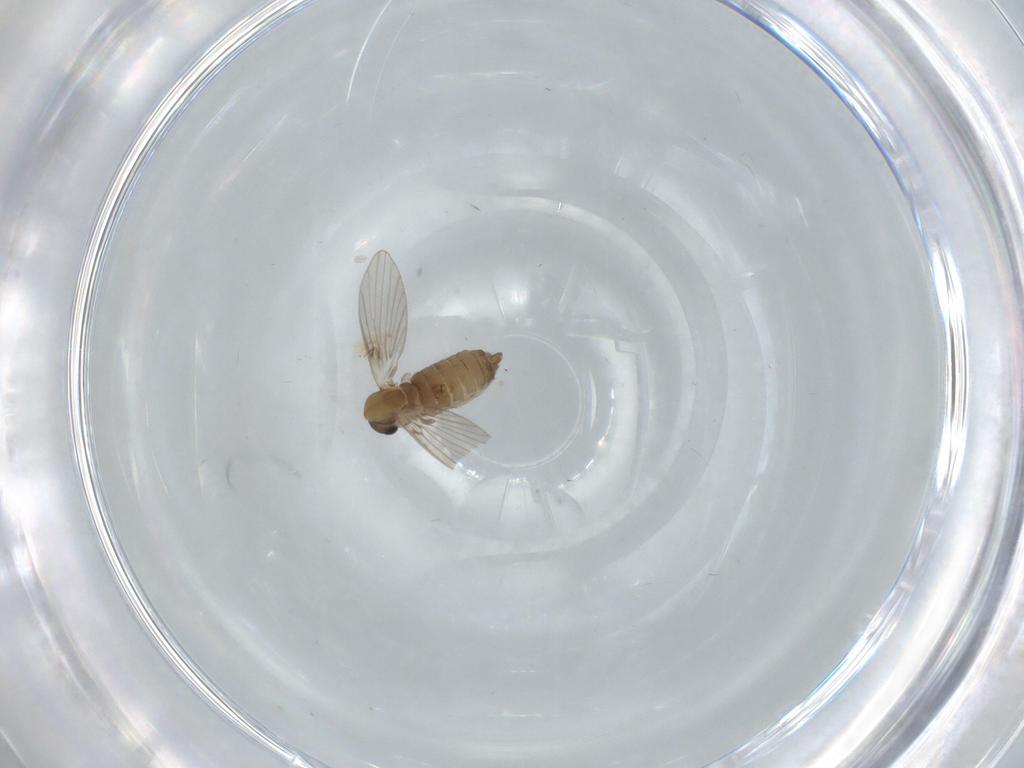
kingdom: Animalia
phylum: Arthropoda
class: Insecta
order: Diptera
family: Psychodidae
